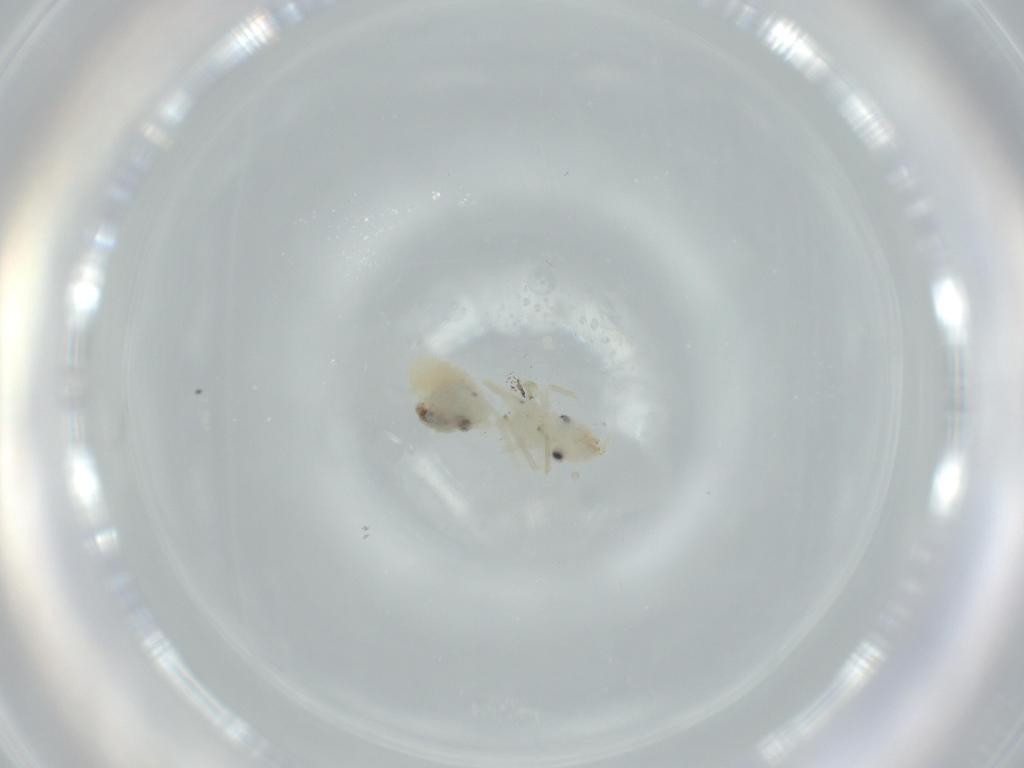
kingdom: Animalia
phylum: Arthropoda
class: Insecta
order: Psocodea
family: Caeciliusidae
